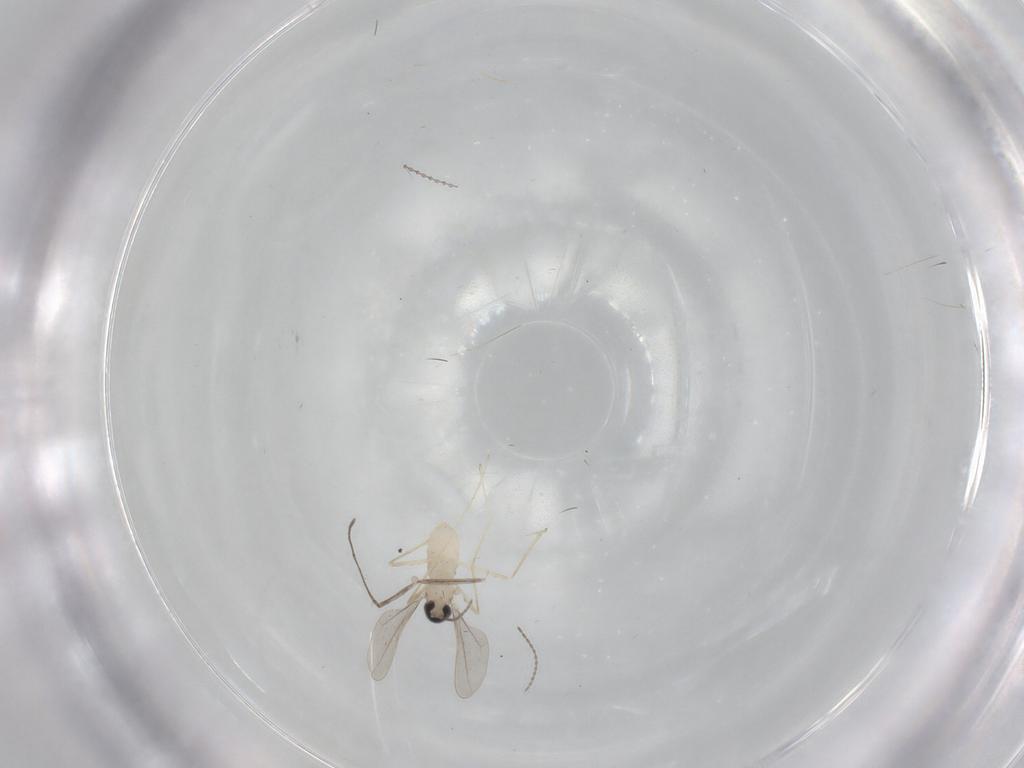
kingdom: Animalia
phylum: Arthropoda
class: Insecta
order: Diptera
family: Cecidomyiidae
